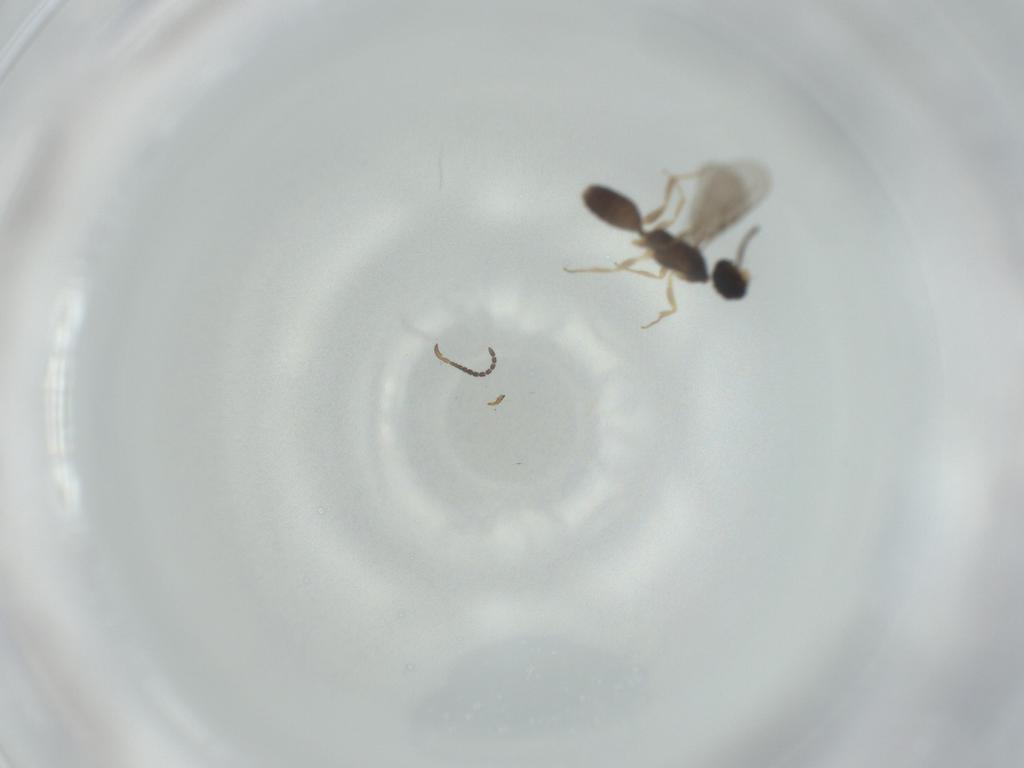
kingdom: Animalia
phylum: Arthropoda
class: Insecta
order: Hymenoptera
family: Bethylidae
